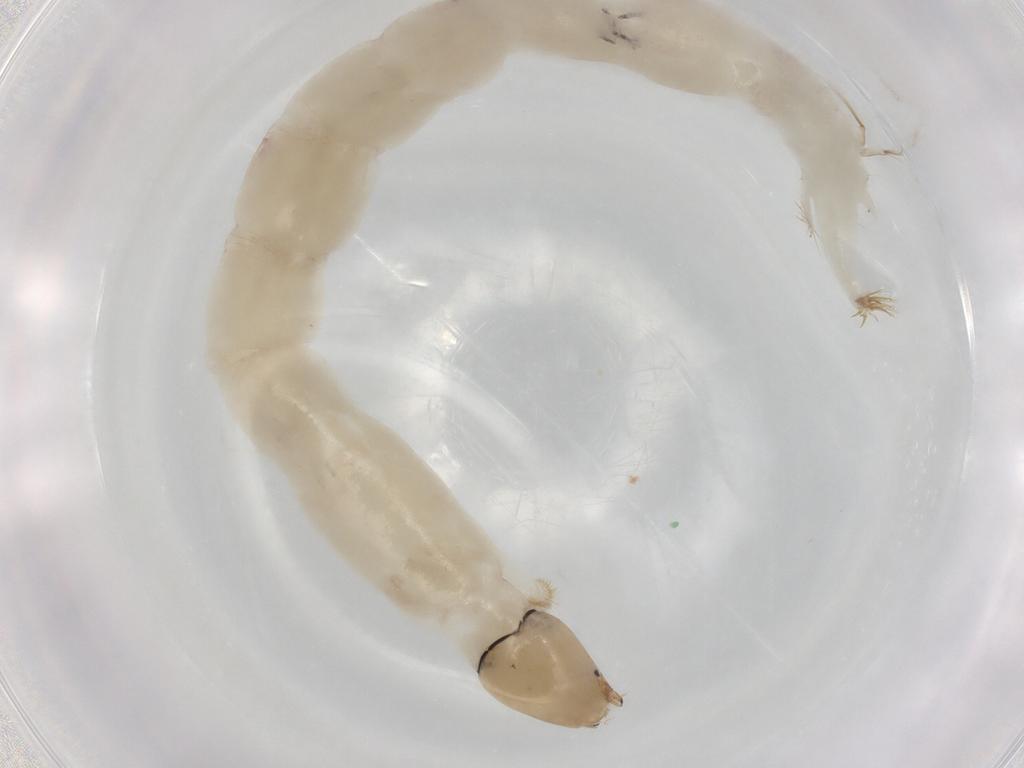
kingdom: Animalia
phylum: Arthropoda
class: Insecta
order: Diptera
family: Chironomidae
